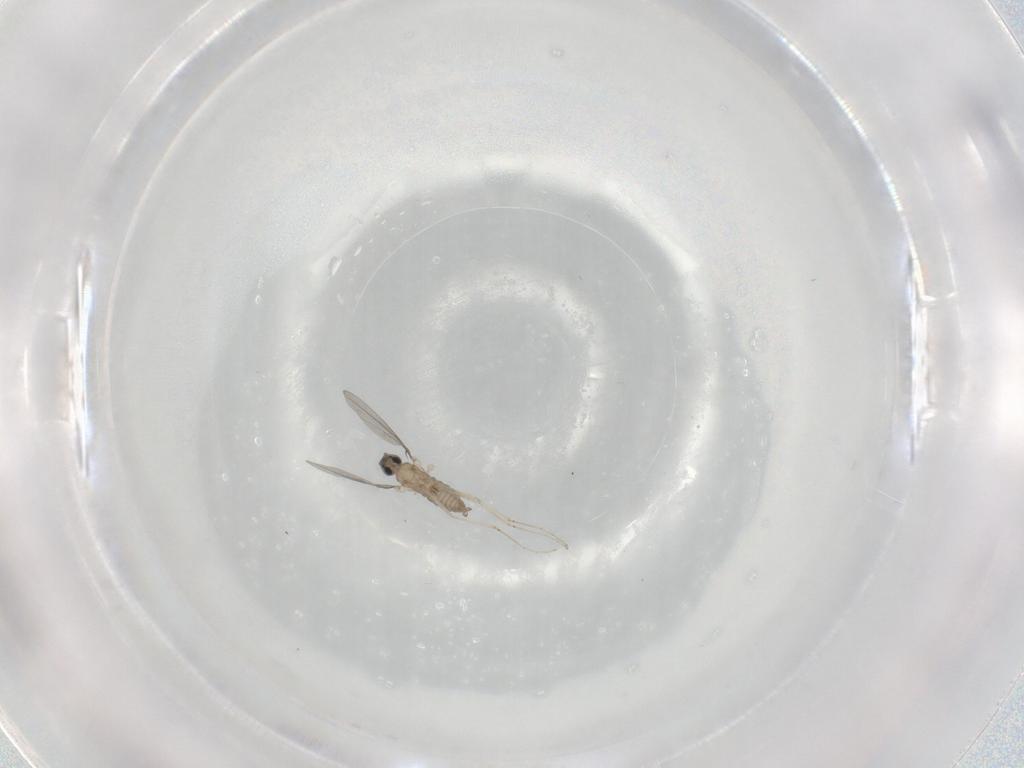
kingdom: Animalia
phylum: Arthropoda
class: Insecta
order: Diptera
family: Cecidomyiidae
